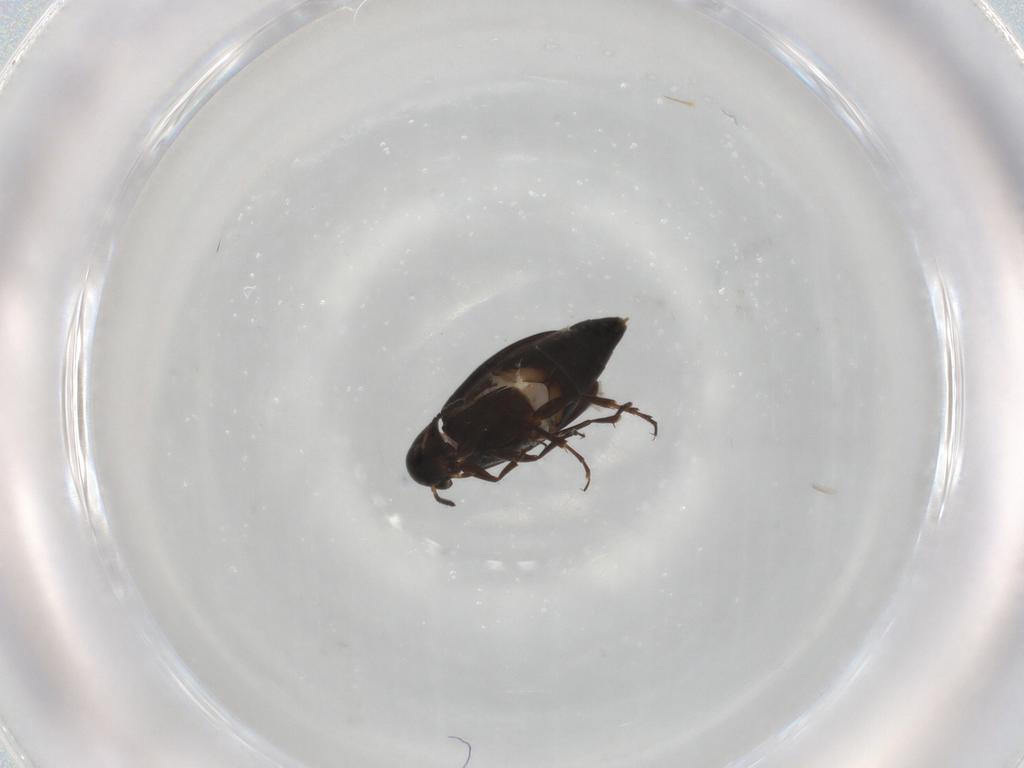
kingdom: Animalia
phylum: Arthropoda
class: Insecta
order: Coleoptera
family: Scraptiidae
